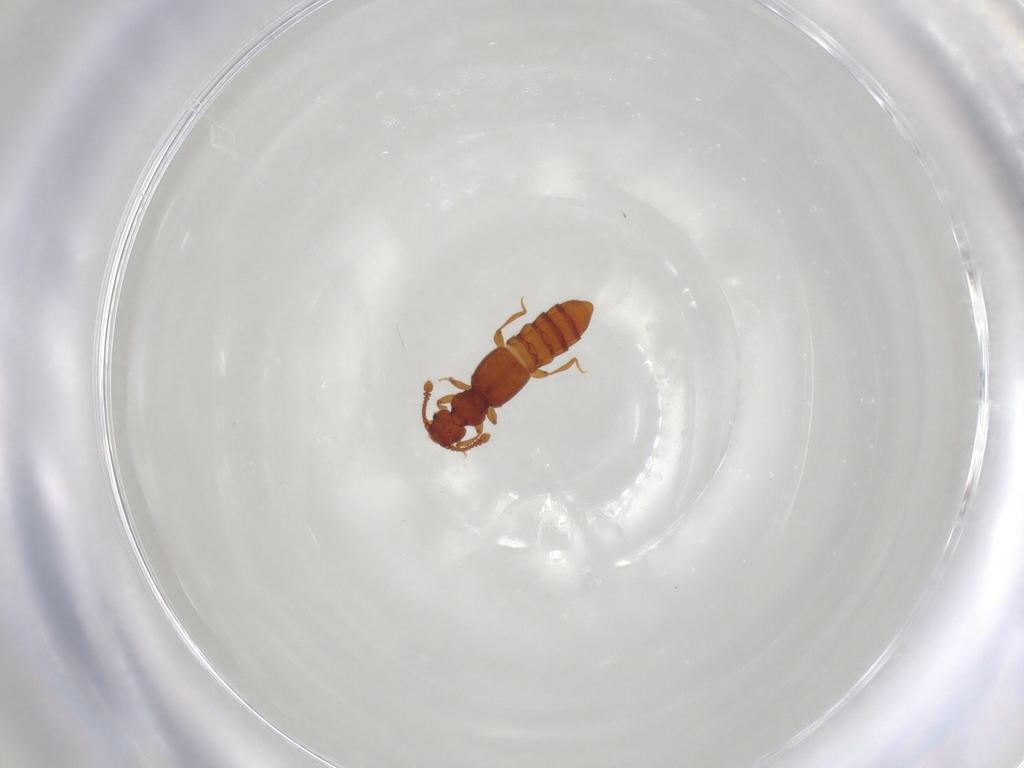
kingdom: Animalia
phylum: Arthropoda
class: Insecta
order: Coleoptera
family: Staphylinidae
